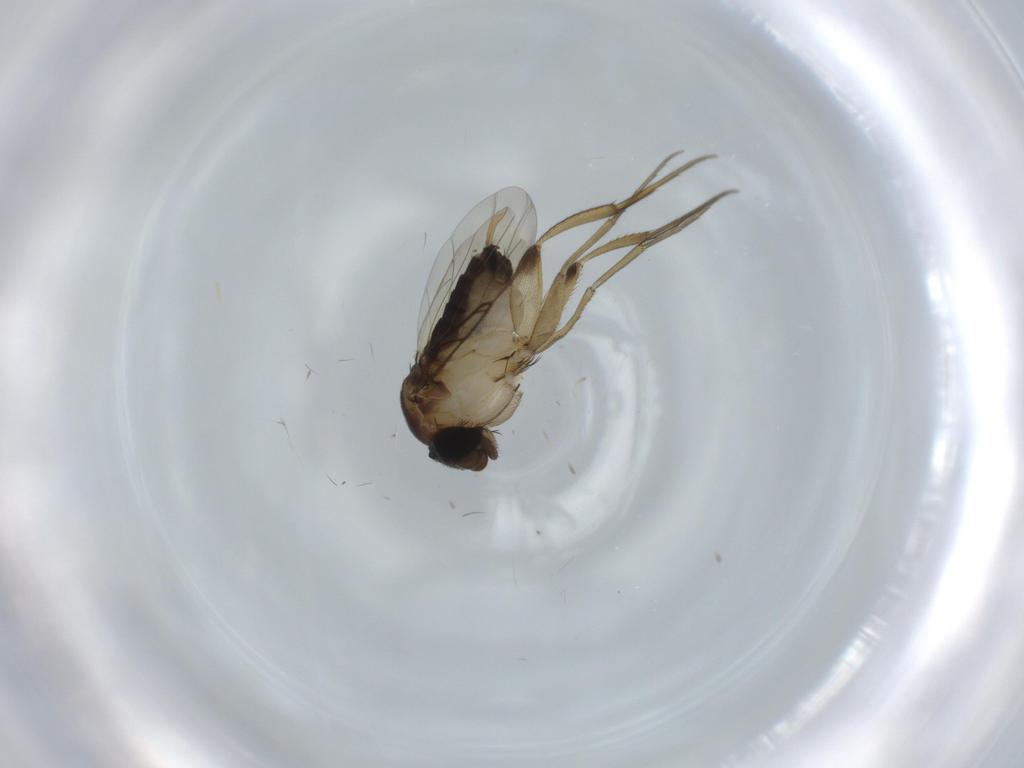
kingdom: Animalia
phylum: Arthropoda
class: Insecta
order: Diptera
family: Phoridae
